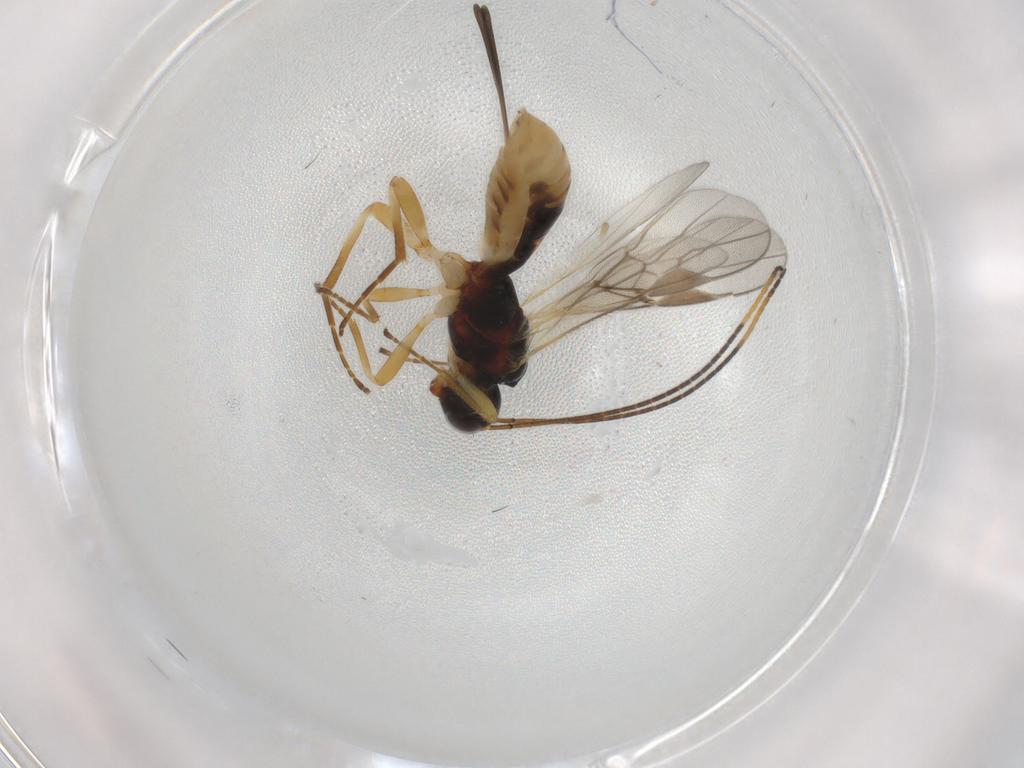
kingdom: Animalia
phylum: Arthropoda
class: Insecta
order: Hymenoptera
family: Braconidae
